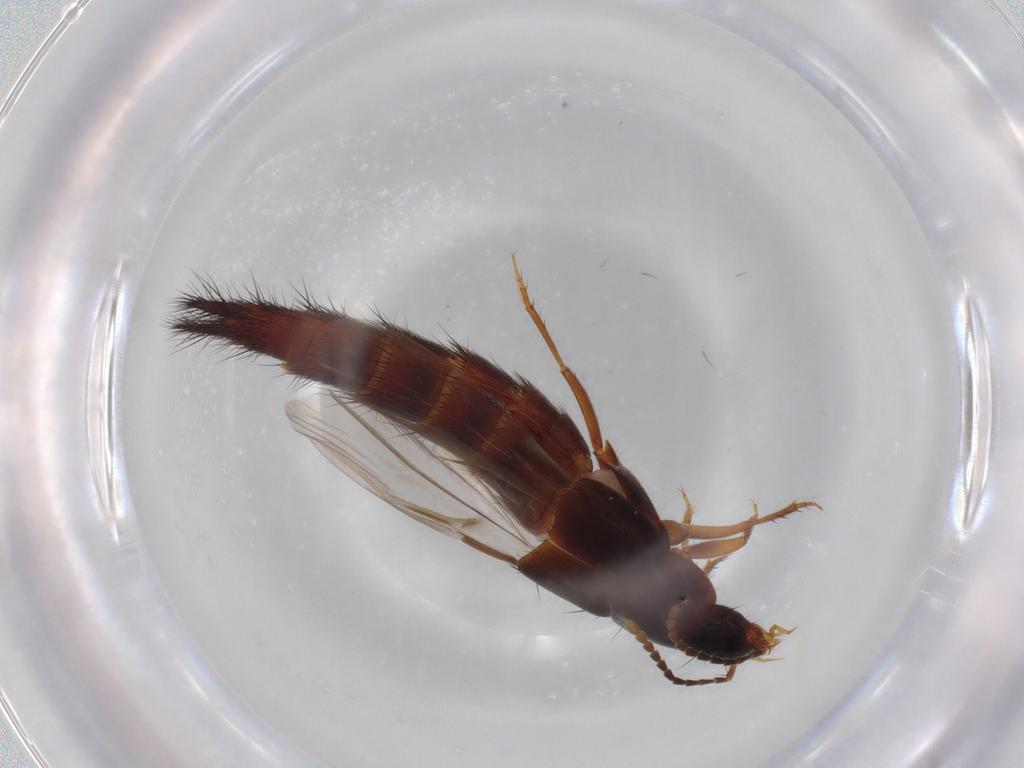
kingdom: Animalia
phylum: Arthropoda
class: Insecta
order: Coleoptera
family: Staphylinidae
